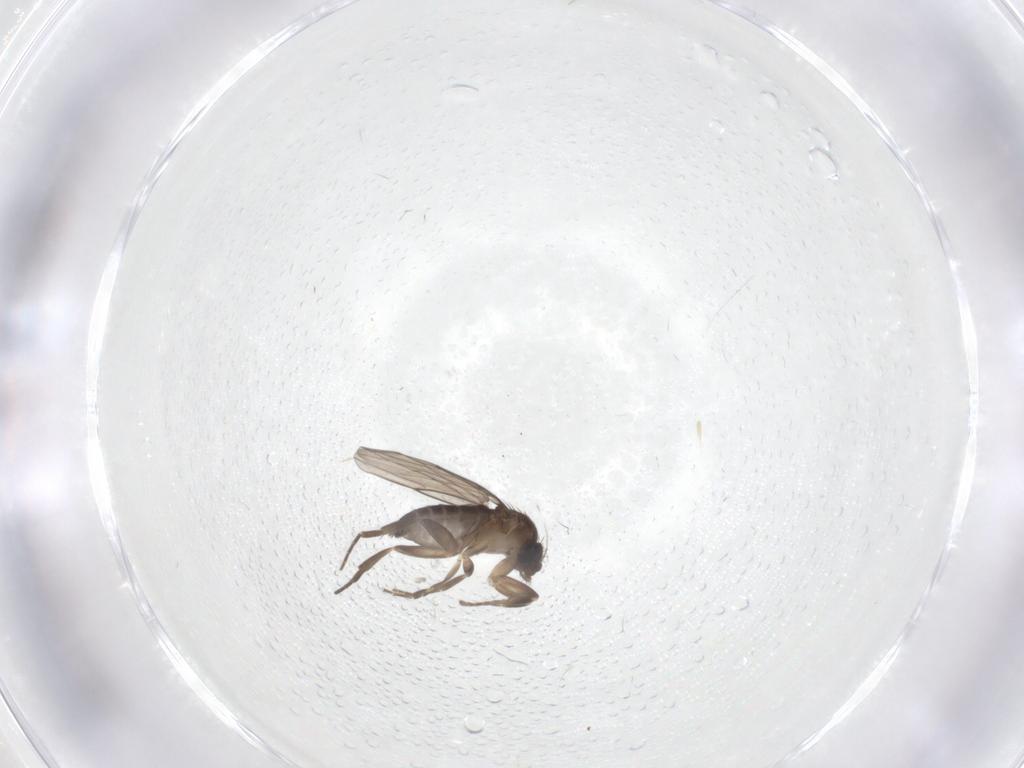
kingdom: Animalia
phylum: Arthropoda
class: Insecta
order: Diptera
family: Phoridae
